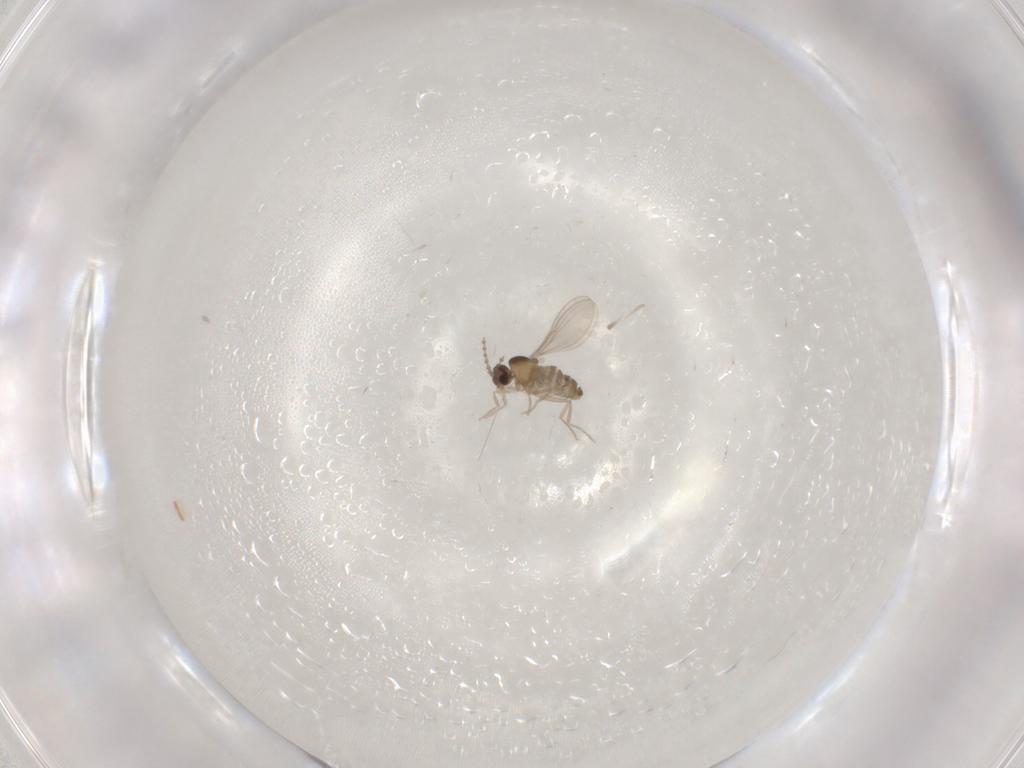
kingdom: Animalia
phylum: Arthropoda
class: Insecta
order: Diptera
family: Cecidomyiidae
